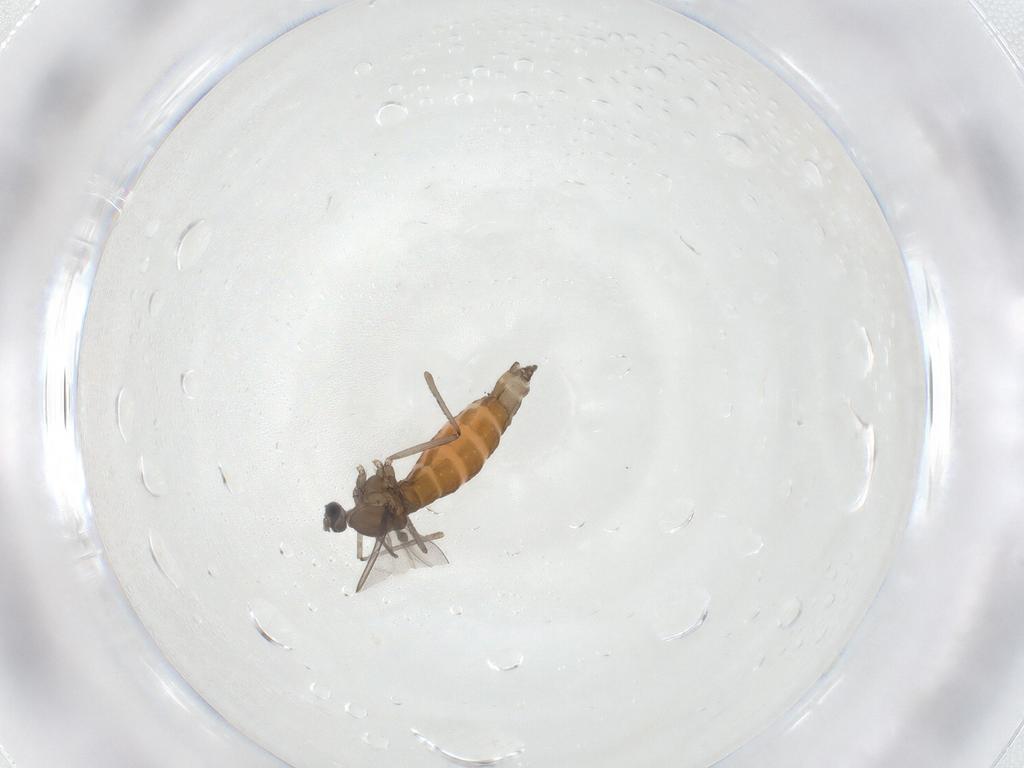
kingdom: Animalia
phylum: Arthropoda
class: Insecta
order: Diptera
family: Cecidomyiidae
